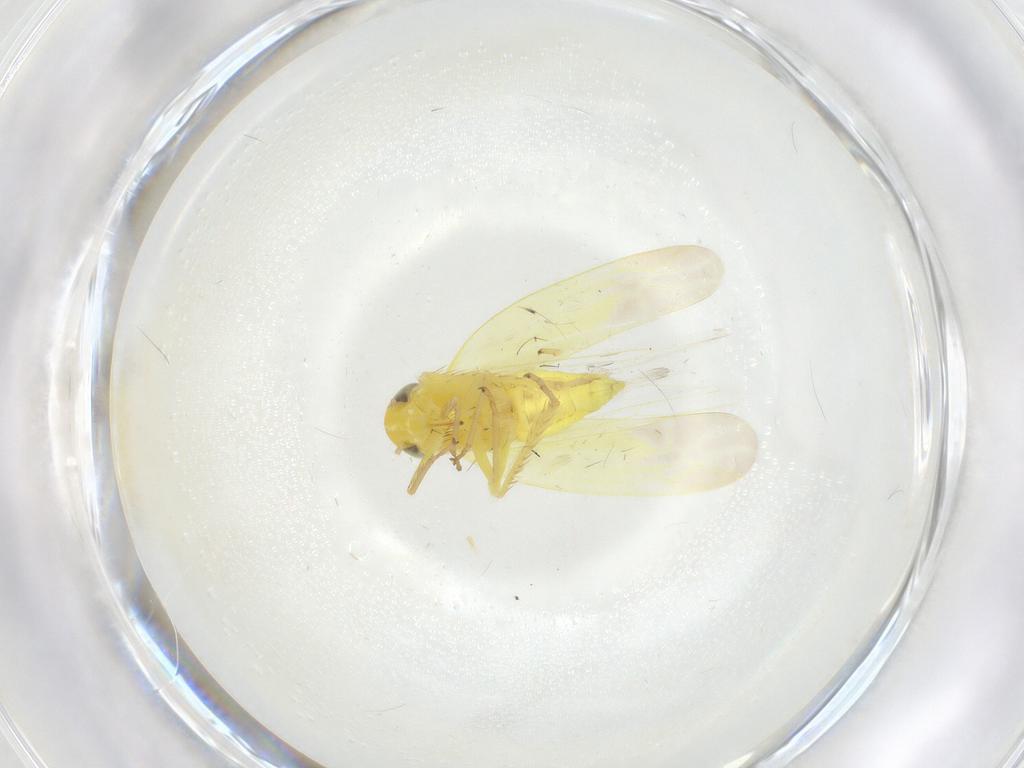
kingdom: Animalia
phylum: Arthropoda
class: Insecta
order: Hemiptera
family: Cicadellidae
